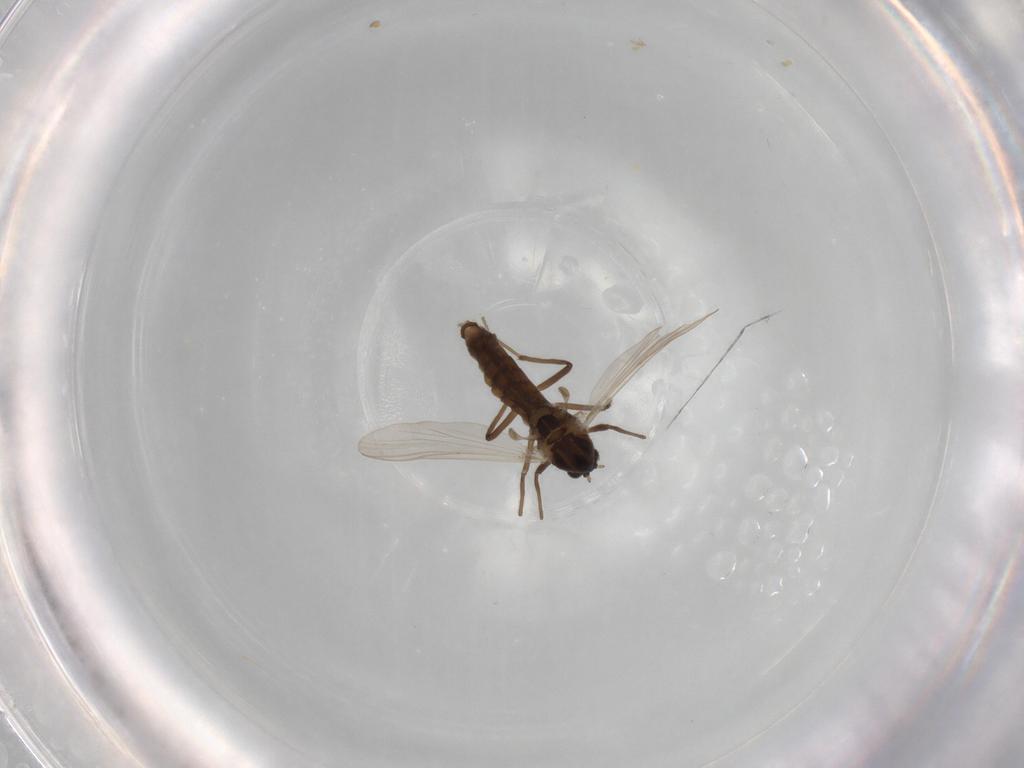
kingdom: Animalia
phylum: Arthropoda
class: Insecta
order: Diptera
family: Chironomidae
